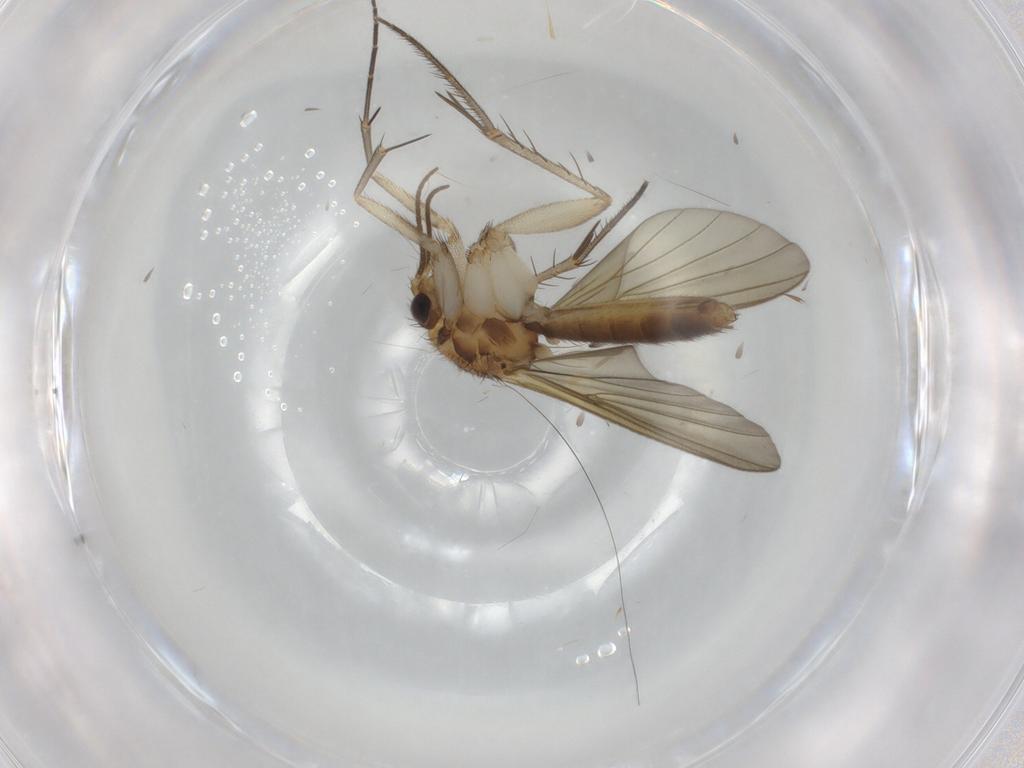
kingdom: Animalia
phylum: Arthropoda
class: Insecta
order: Diptera
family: Mycetophilidae
